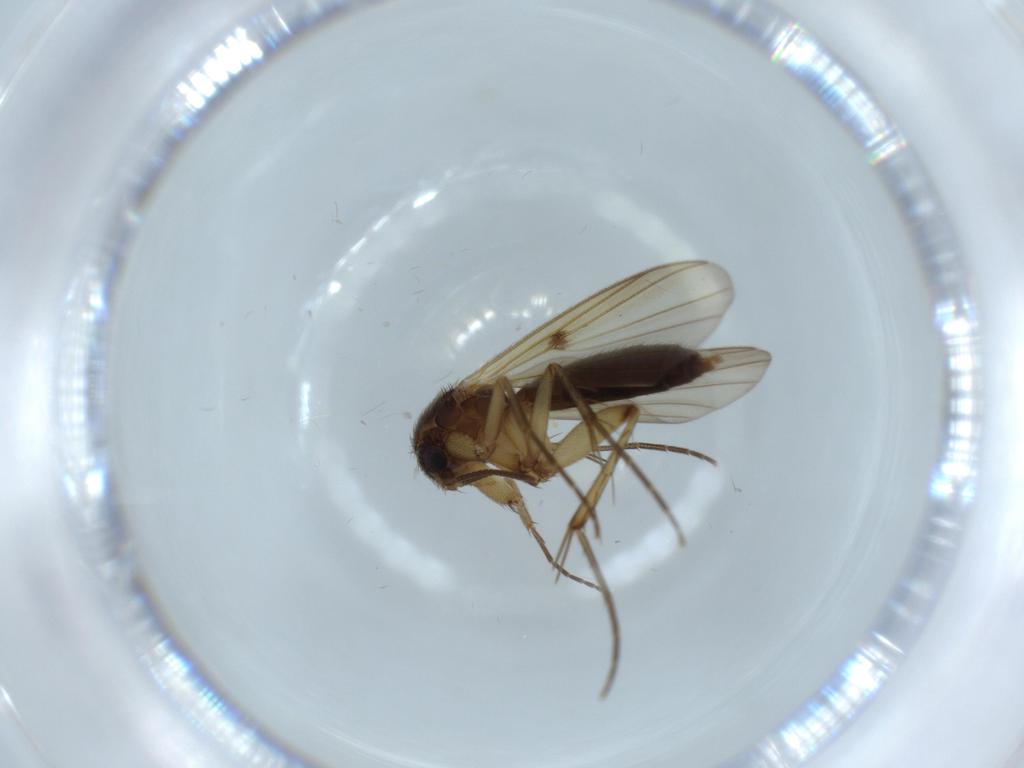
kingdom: Animalia
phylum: Arthropoda
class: Insecta
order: Diptera
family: Scathophagidae
